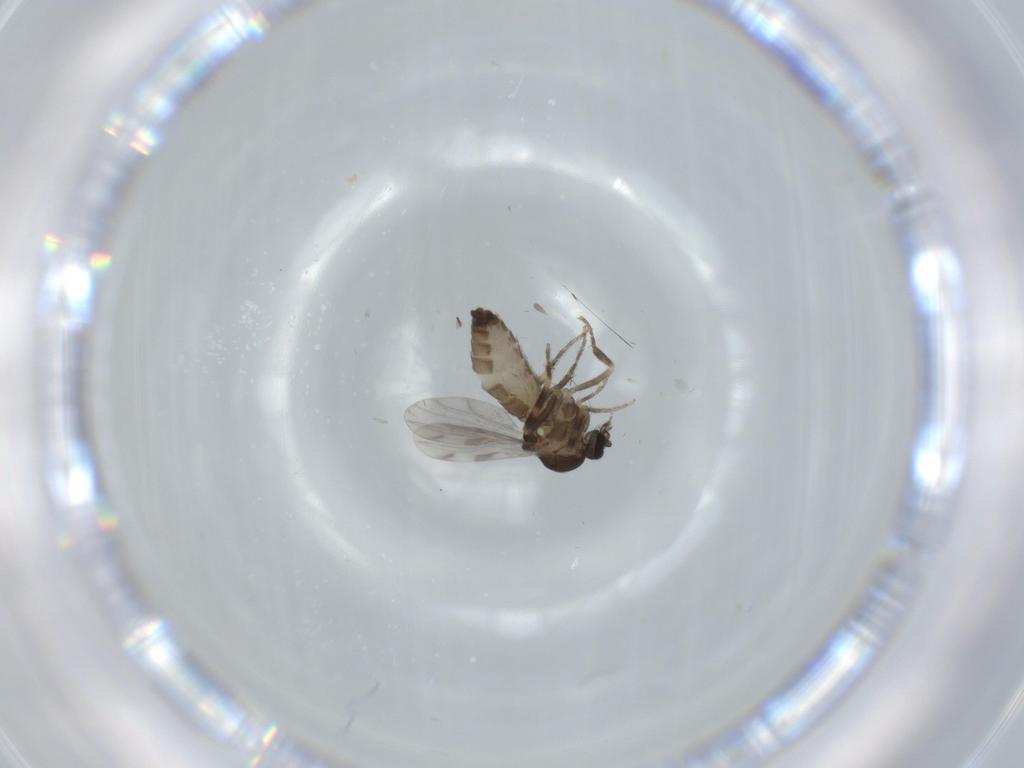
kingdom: Animalia
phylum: Arthropoda
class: Insecta
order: Diptera
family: Ceratopogonidae
